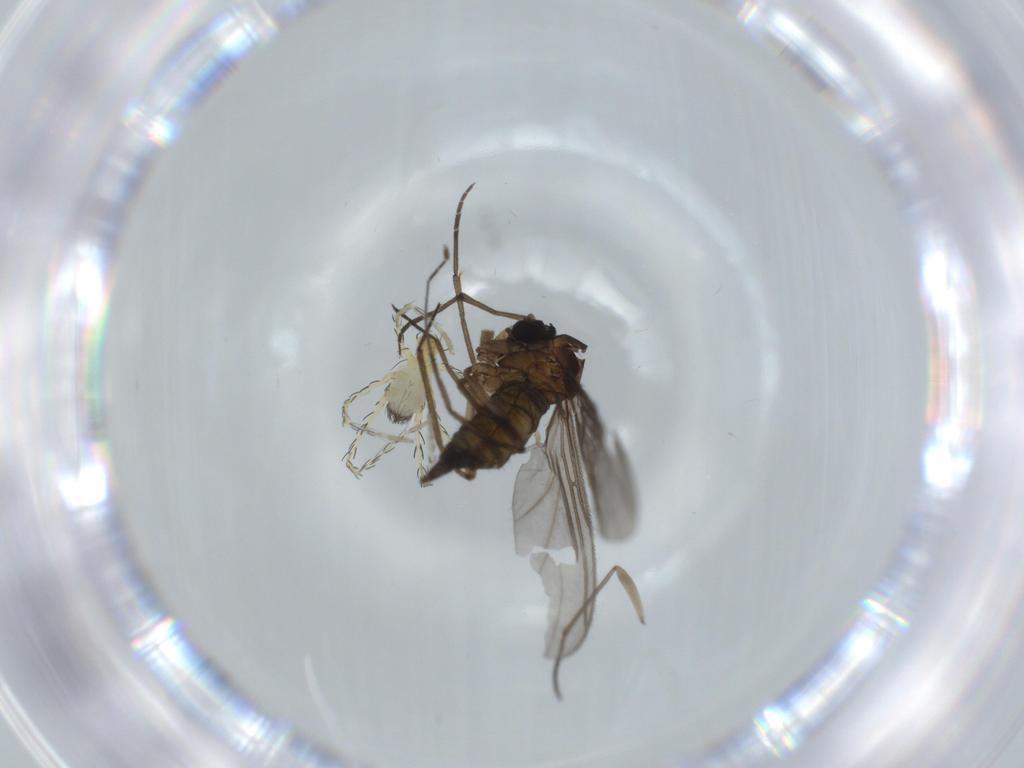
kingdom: Animalia
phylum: Arthropoda
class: Insecta
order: Diptera
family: Sciaridae
